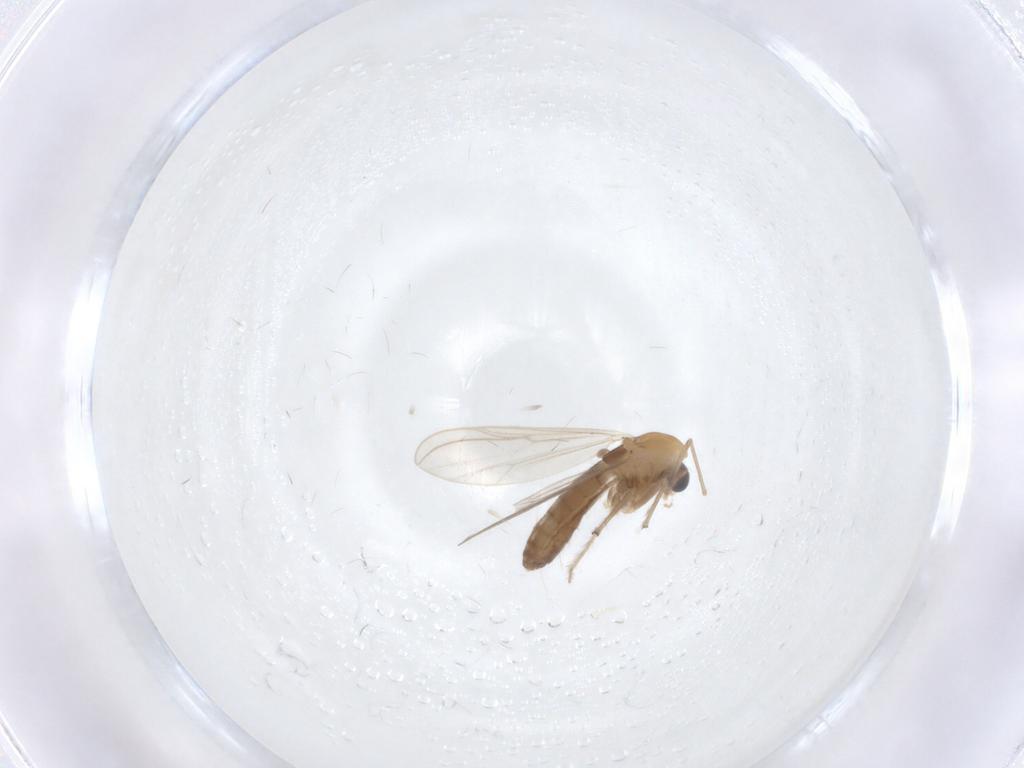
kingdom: Animalia
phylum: Arthropoda
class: Insecta
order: Diptera
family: Chironomidae
